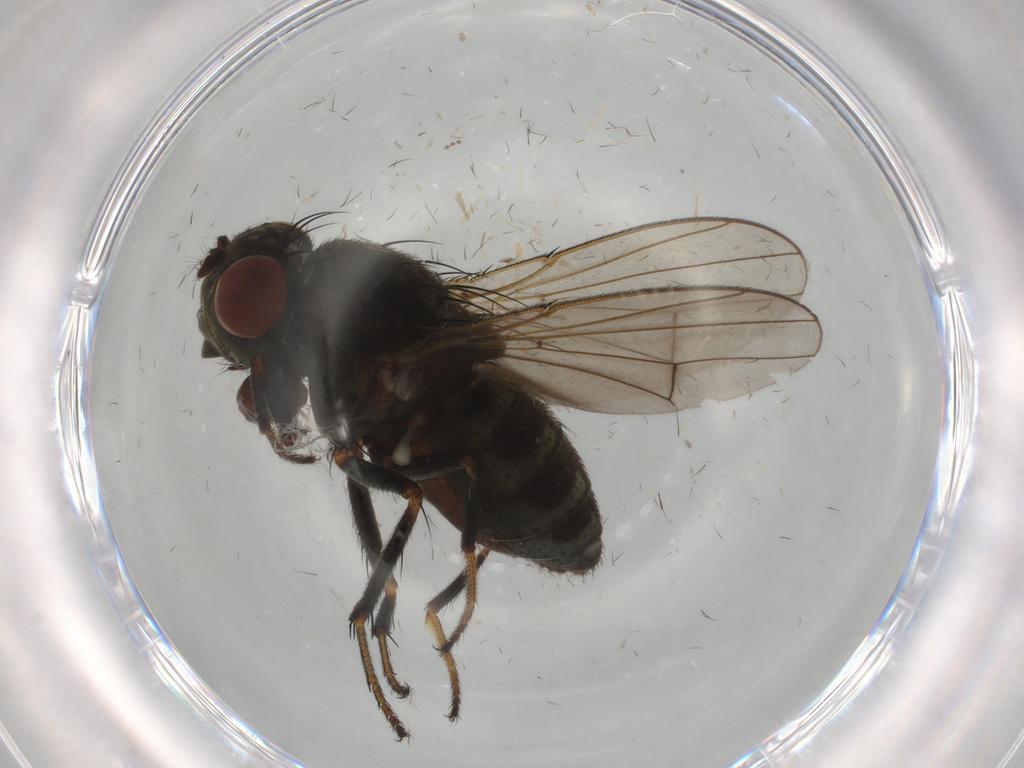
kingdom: Animalia
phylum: Arthropoda
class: Insecta
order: Diptera
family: Ephydridae
